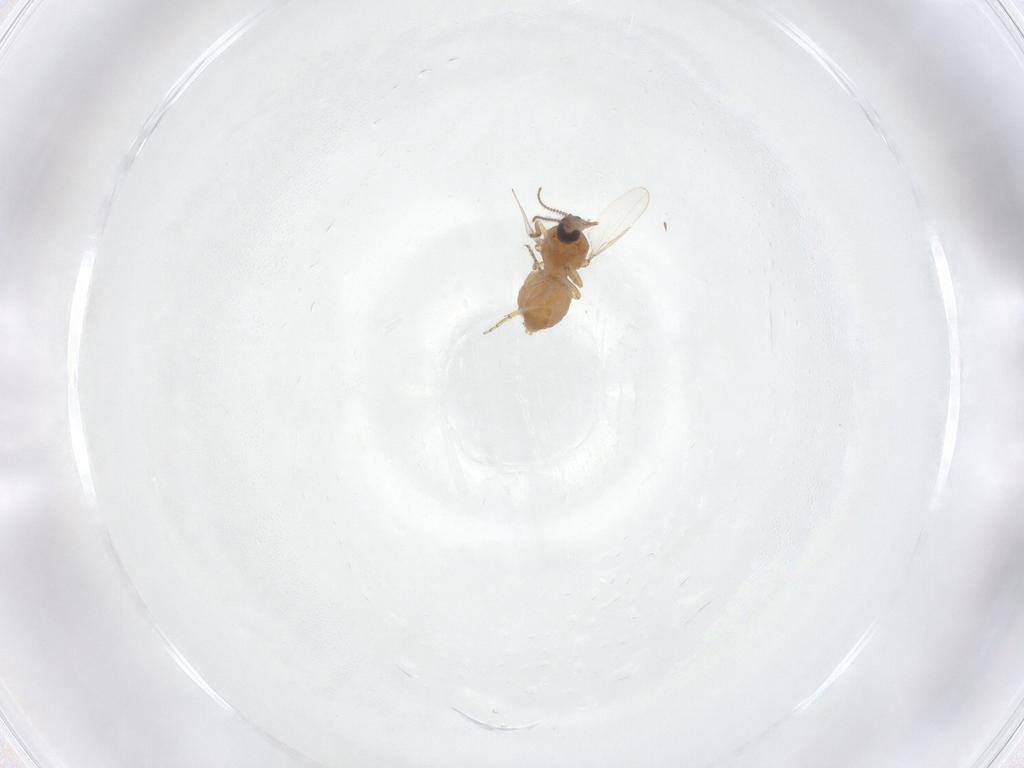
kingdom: Animalia
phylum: Arthropoda
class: Insecta
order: Diptera
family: Ceratopogonidae
